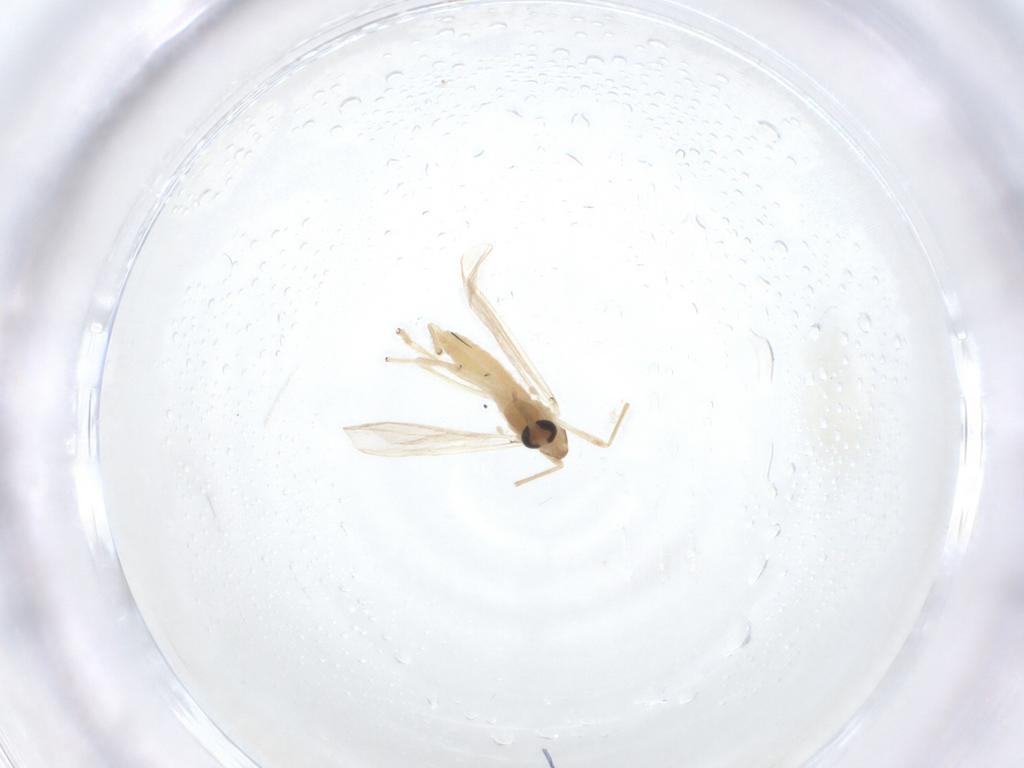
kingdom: Animalia
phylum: Arthropoda
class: Insecta
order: Diptera
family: Chironomidae
